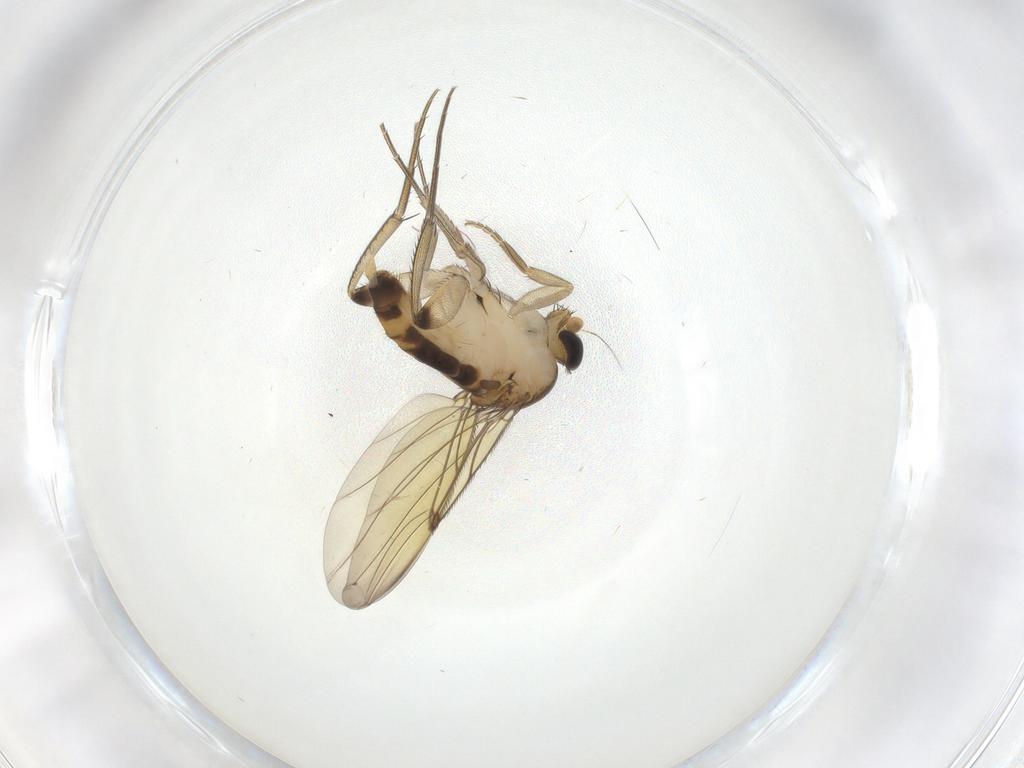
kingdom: Animalia
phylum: Arthropoda
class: Insecta
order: Diptera
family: Phoridae
